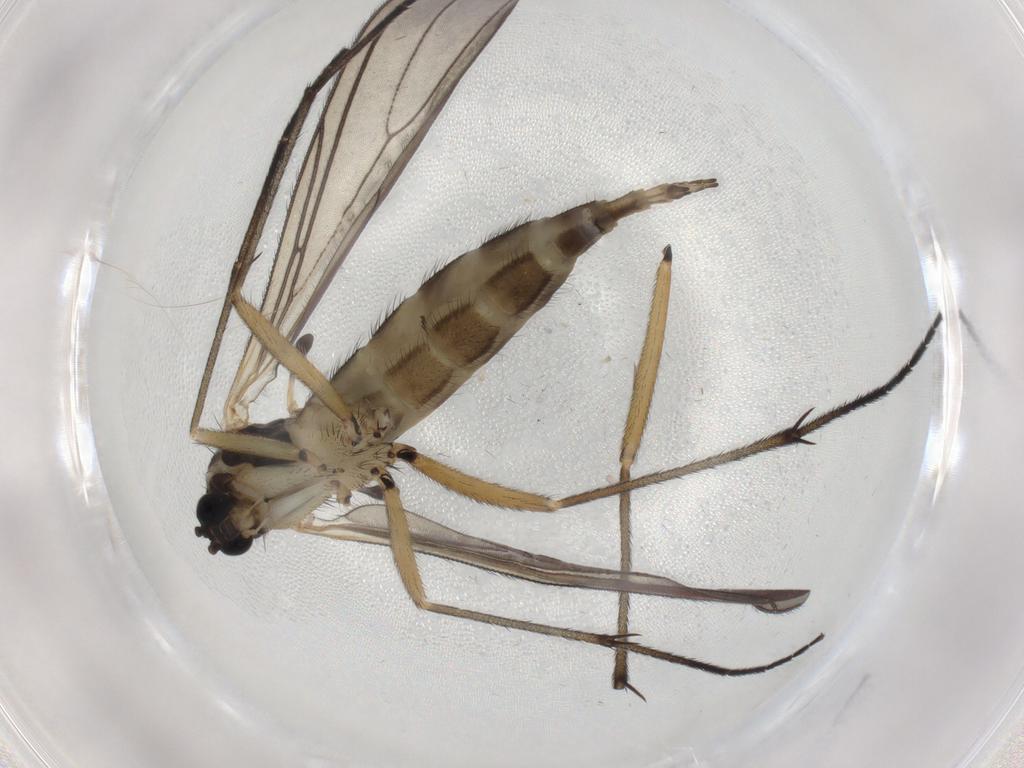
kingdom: Animalia
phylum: Arthropoda
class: Insecta
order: Diptera
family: Sciaridae
